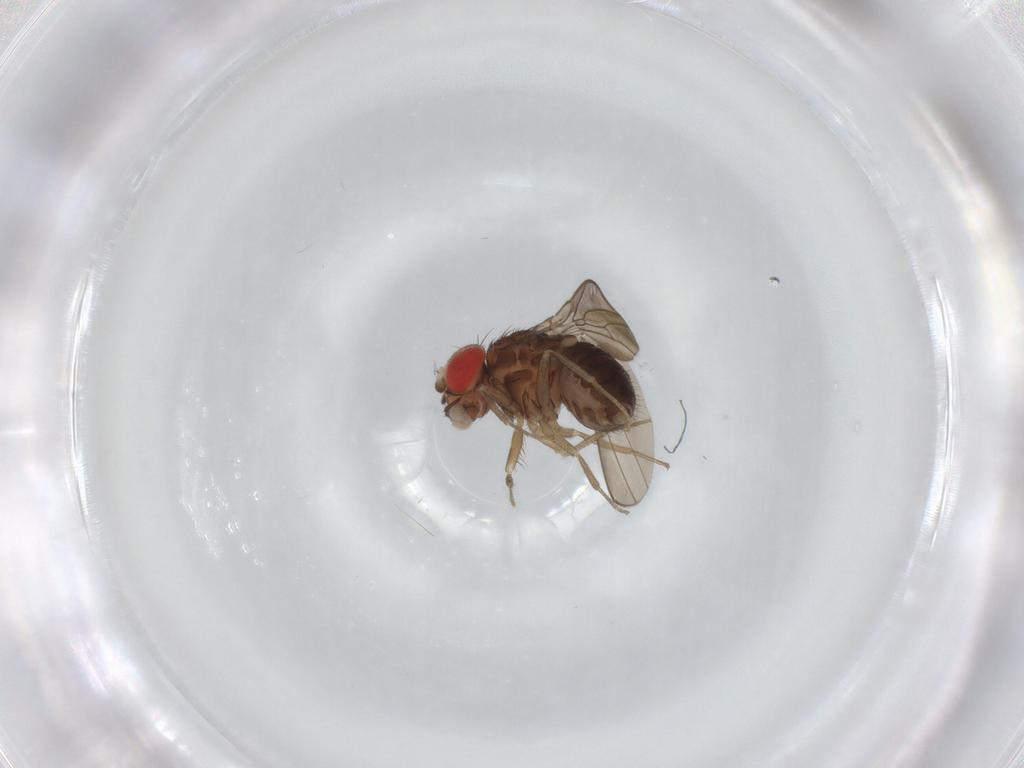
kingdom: Animalia
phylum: Arthropoda
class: Insecta
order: Diptera
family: Drosophilidae
